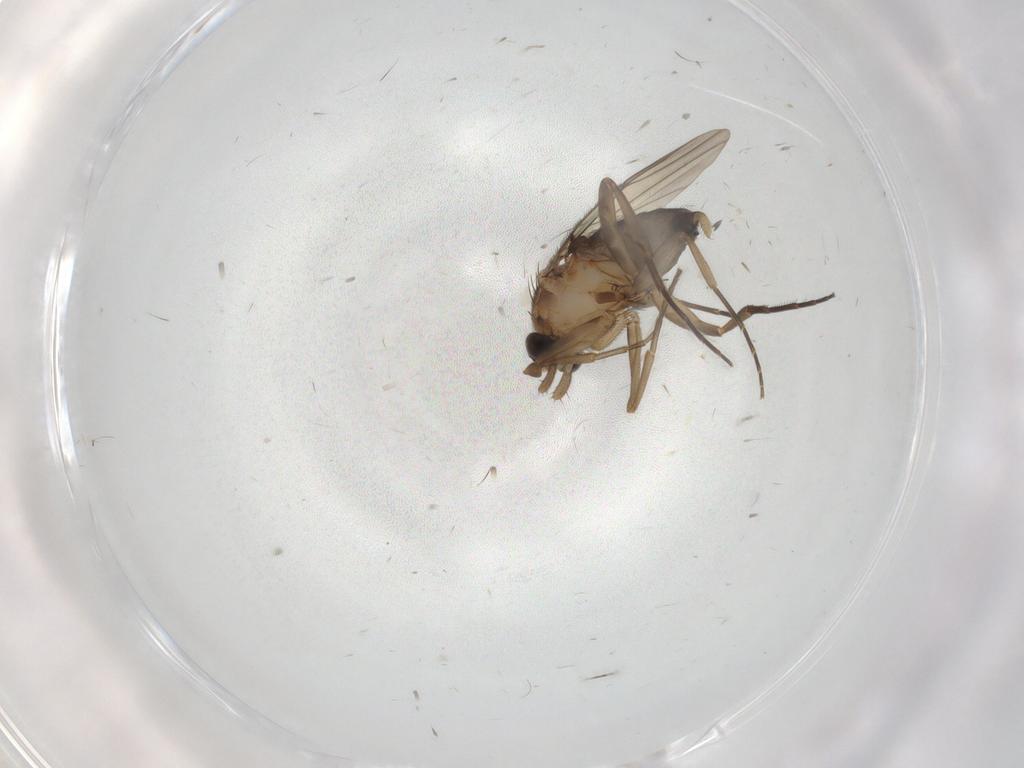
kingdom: Animalia
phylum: Arthropoda
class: Insecta
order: Diptera
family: Phoridae
